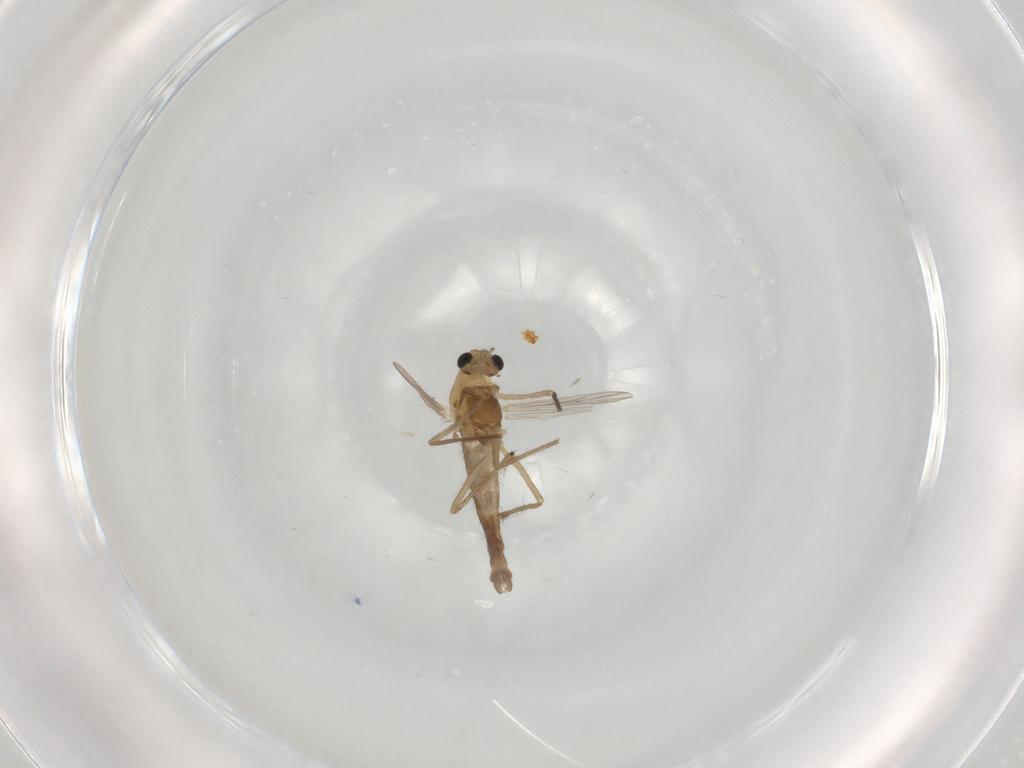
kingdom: Animalia
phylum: Arthropoda
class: Insecta
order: Diptera
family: Chironomidae
